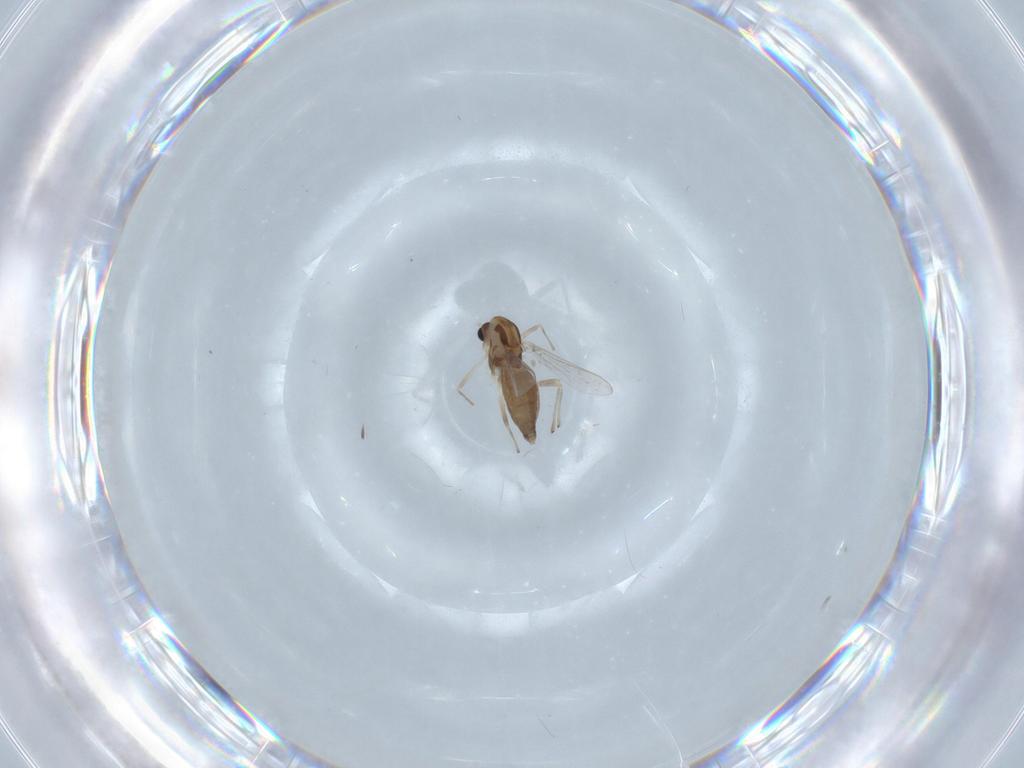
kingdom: Animalia
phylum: Arthropoda
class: Insecta
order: Diptera
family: Chironomidae
